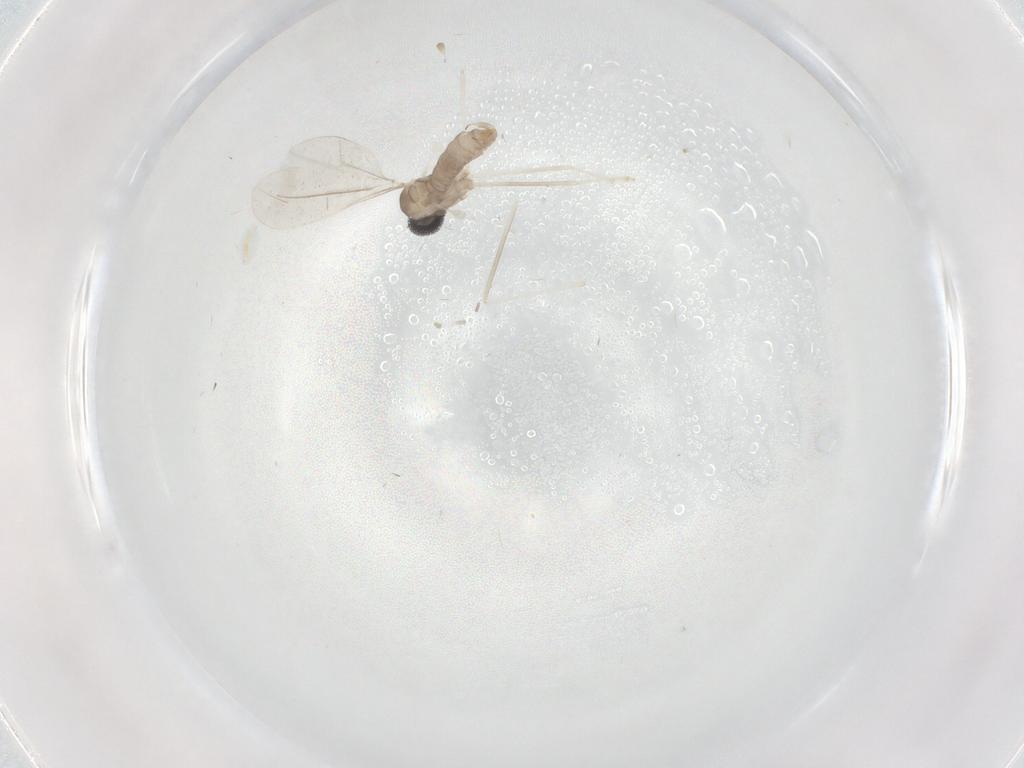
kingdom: Animalia
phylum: Arthropoda
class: Insecta
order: Diptera
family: Cecidomyiidae
